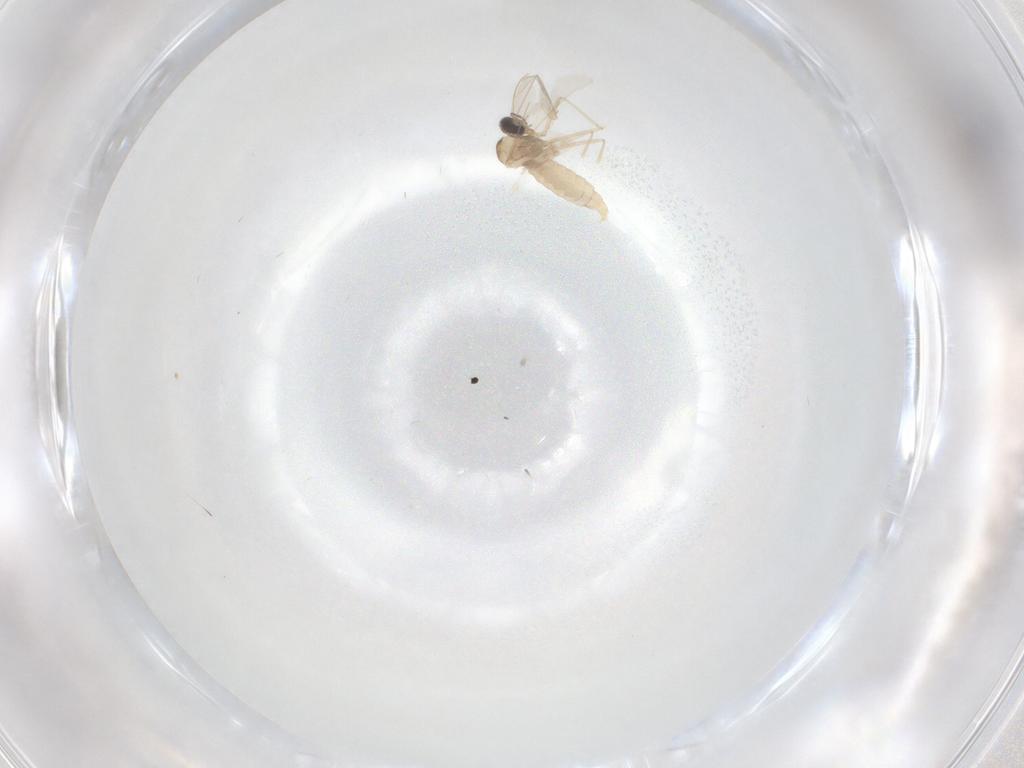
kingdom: Animalia
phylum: Arthropoda
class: Insecta
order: Diptera
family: Cecidomyiidae
